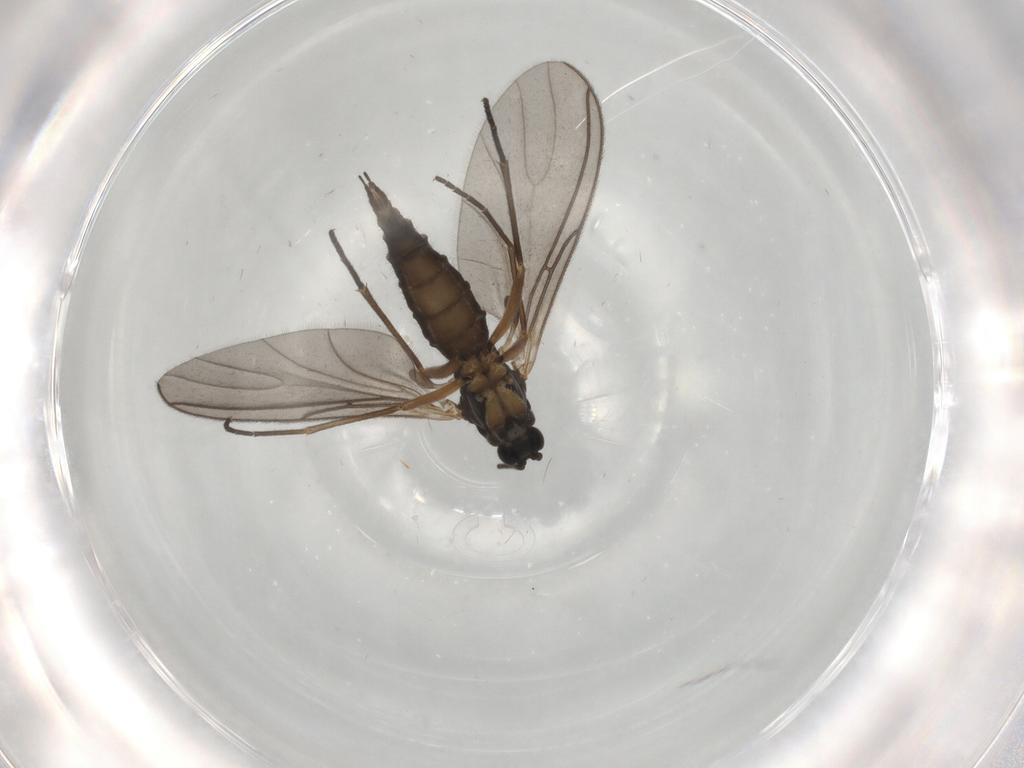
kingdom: Animalia
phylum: Arthropoda
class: Insecta
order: Diptera
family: Sciaridae
